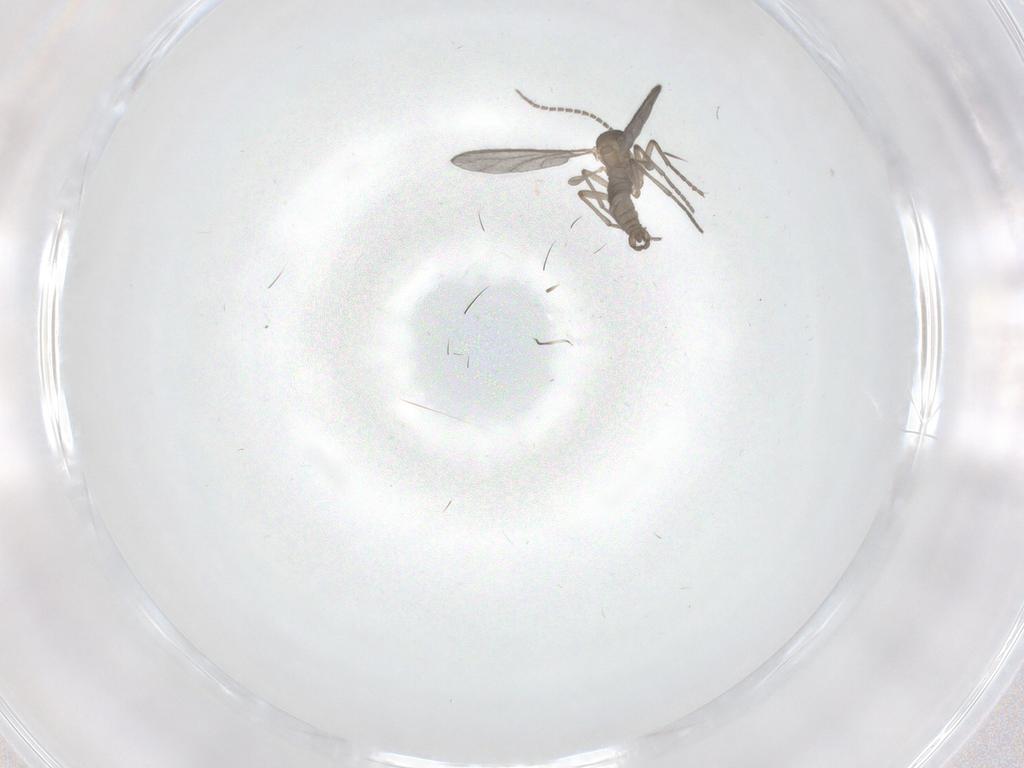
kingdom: Animalia
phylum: Arthropoda
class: Insecta
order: Diptera
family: Sciaridae
